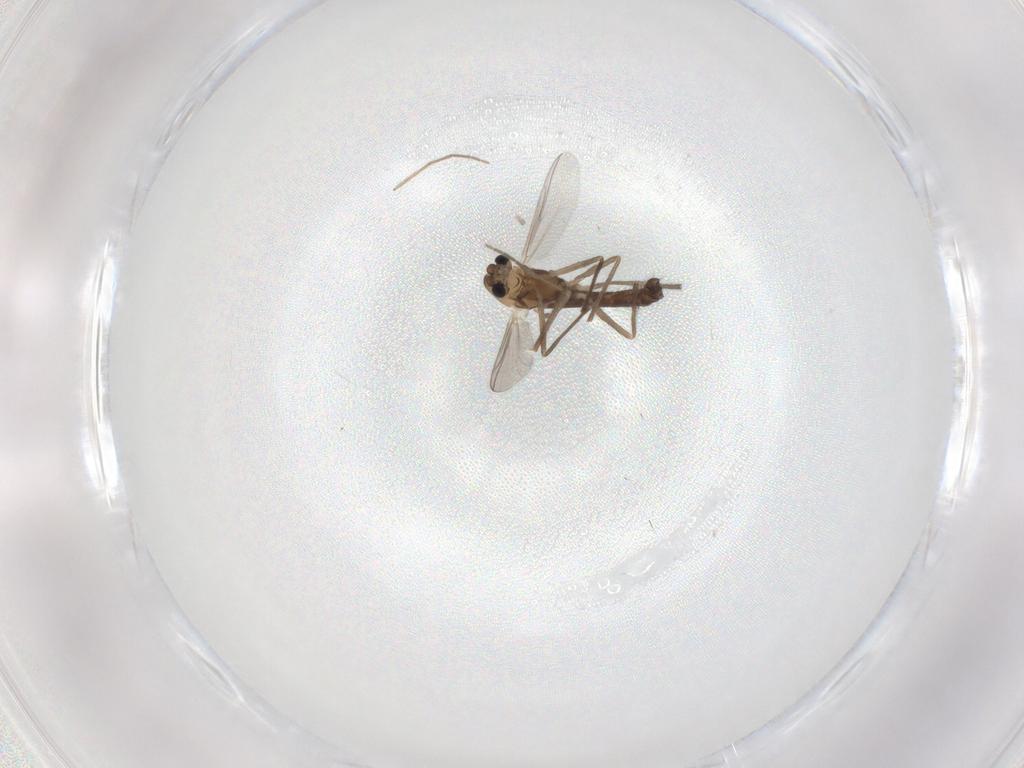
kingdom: Animalia
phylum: Arthropoda
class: Insecta
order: Diptera
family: Chironomidae
